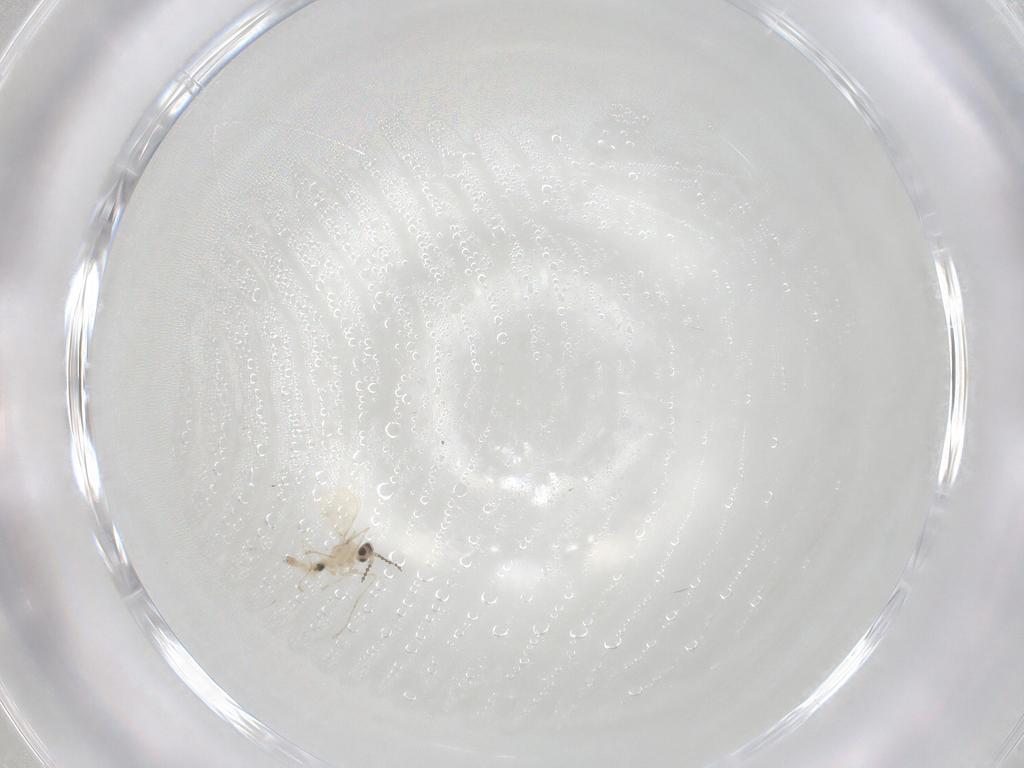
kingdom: Animalia
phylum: Arthropoda
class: Insecta
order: Diptera
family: Cecidomyiidae
